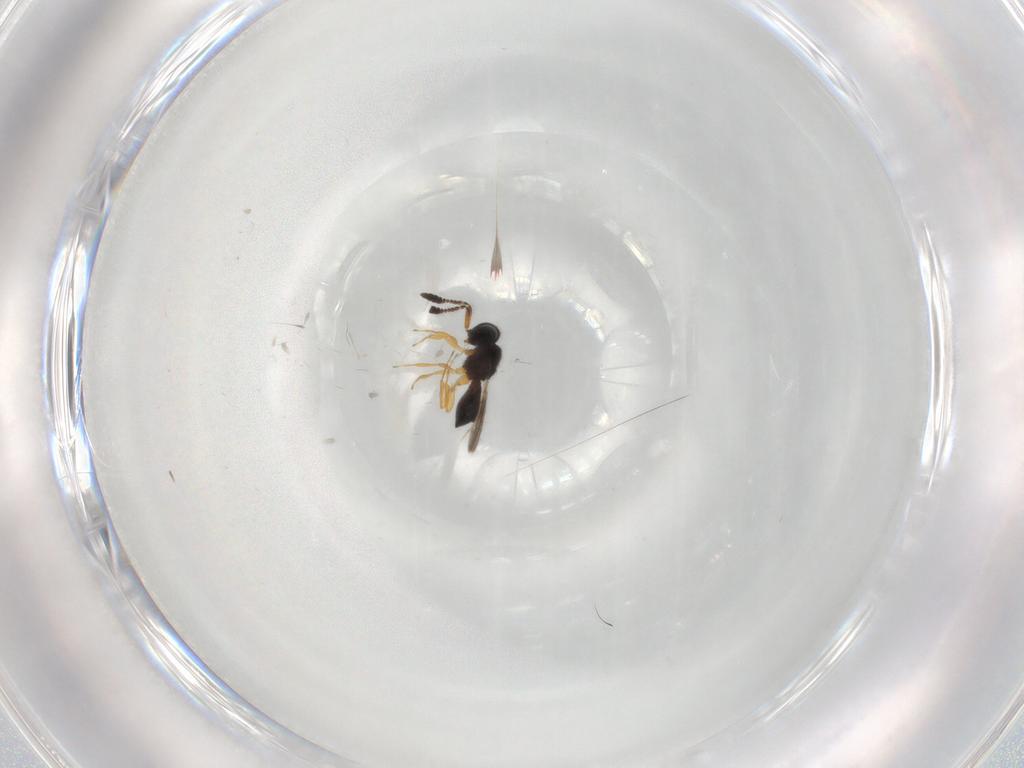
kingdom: Animalia
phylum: Arthropoda
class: Insecta
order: Hymenoptera
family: Scelionidae
